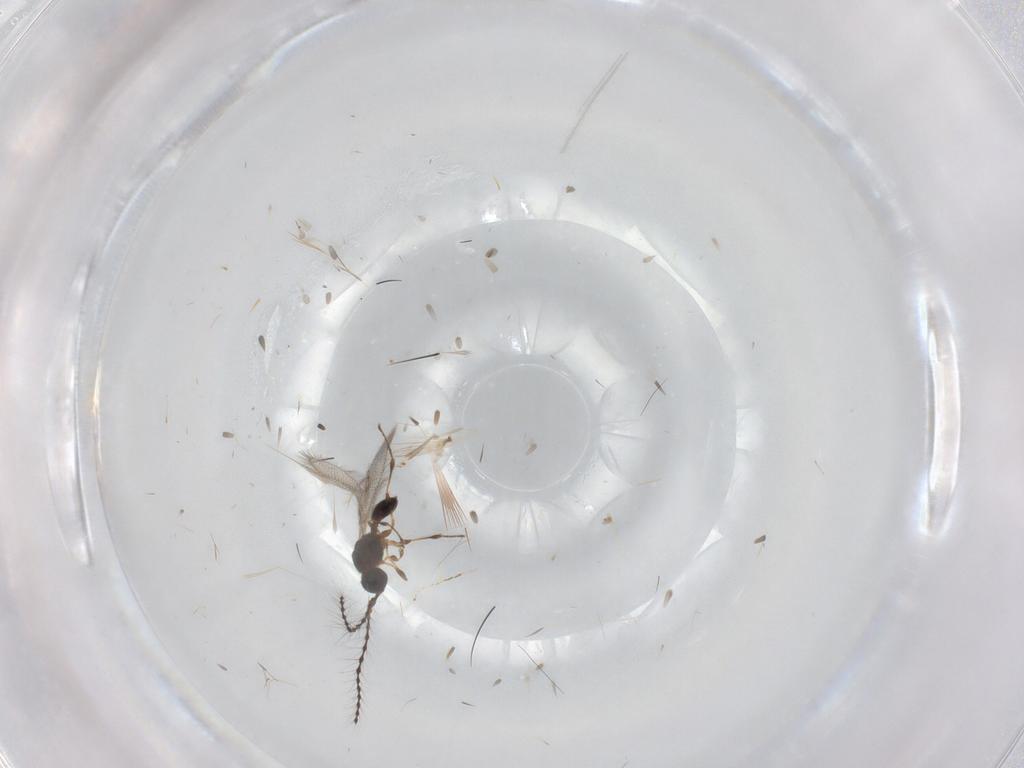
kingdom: Animalia
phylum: Arthropoda
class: Insecta
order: Hymenoptera
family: Diapriidae
